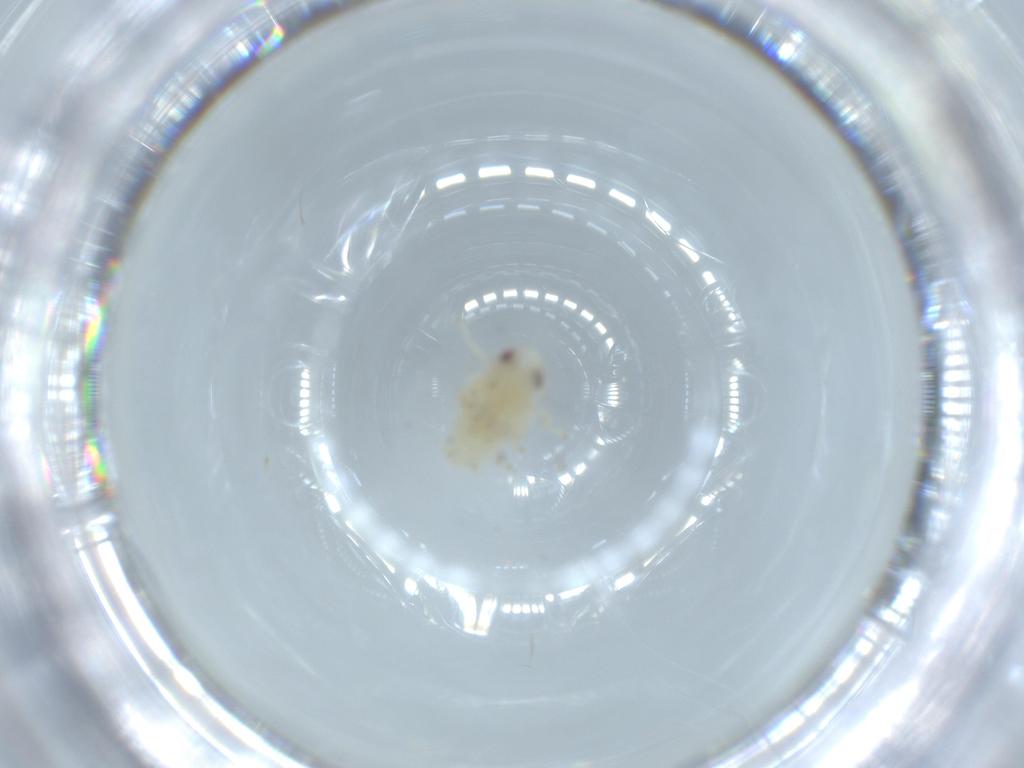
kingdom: Animalia
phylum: Arthropoda
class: Insecta
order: Hemiptera
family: Nogodinidae
